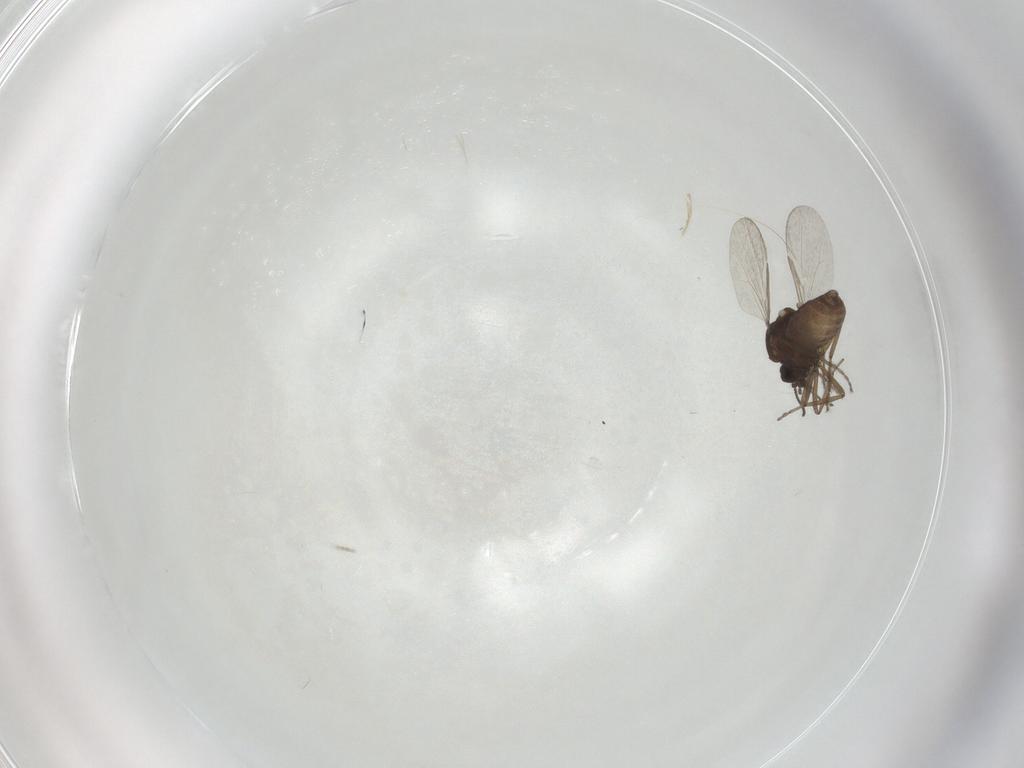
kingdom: Animalia
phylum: Arthropoda
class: Insecta
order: Diptera
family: Ceratopogonidae
